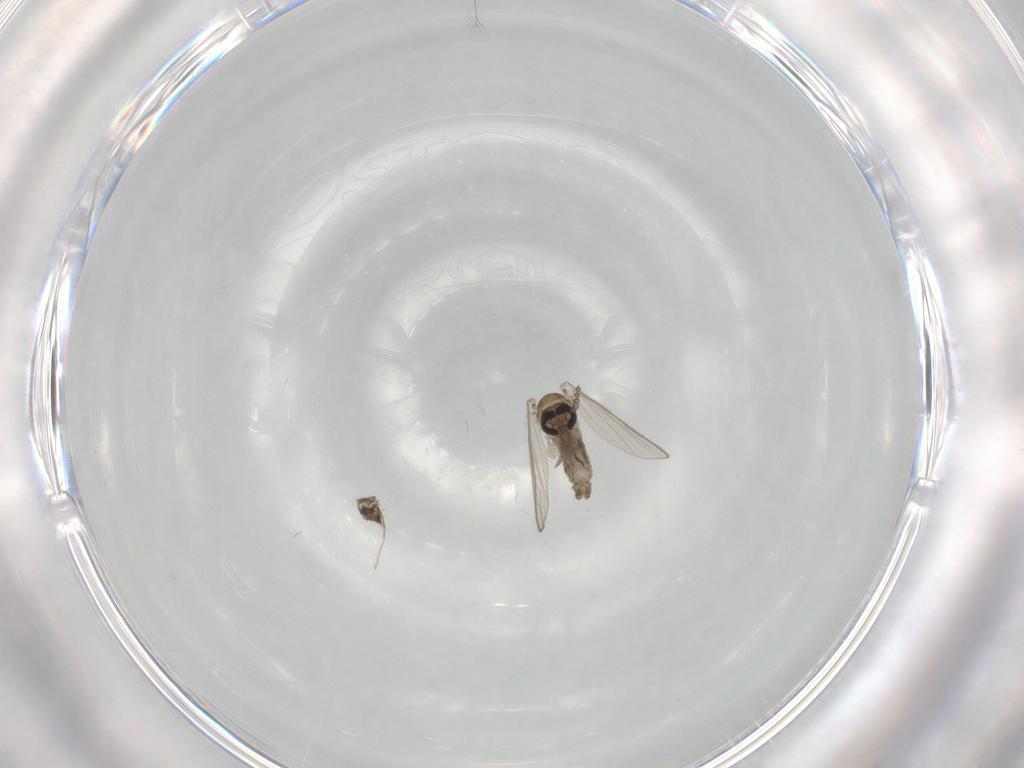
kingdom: Animalia
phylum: Arthropoda
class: Insecta
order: Diptera
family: Psychodidae
